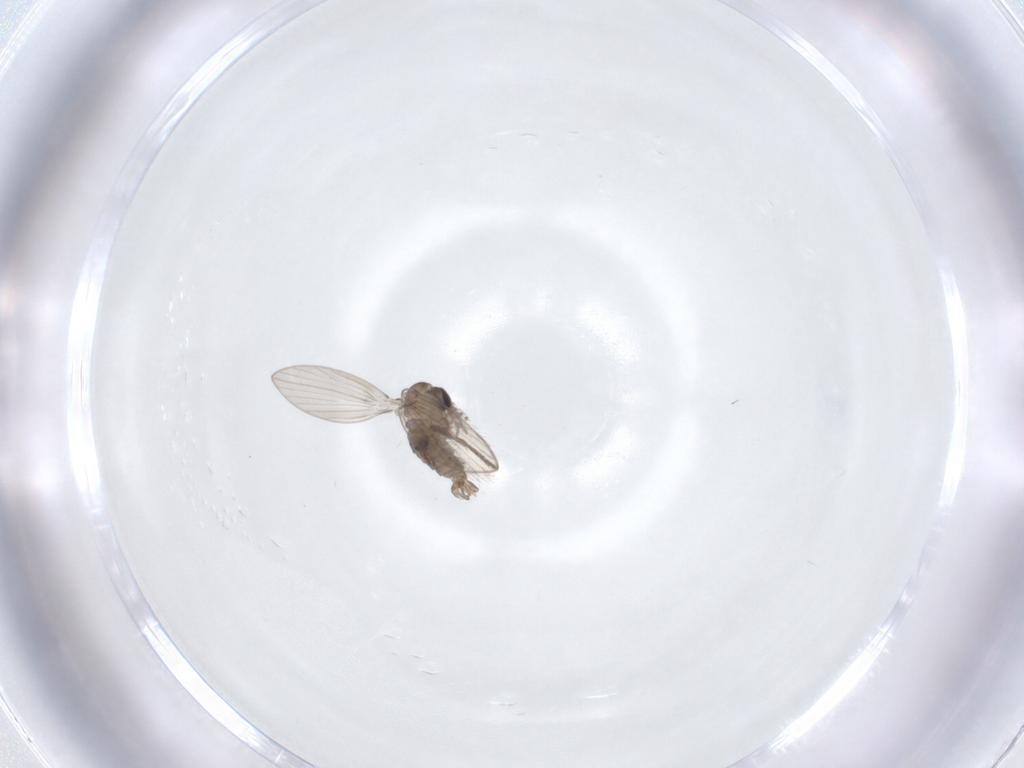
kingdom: Animalia
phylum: Arthropoda
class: Insecta
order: Diptera
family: Psychodidae
